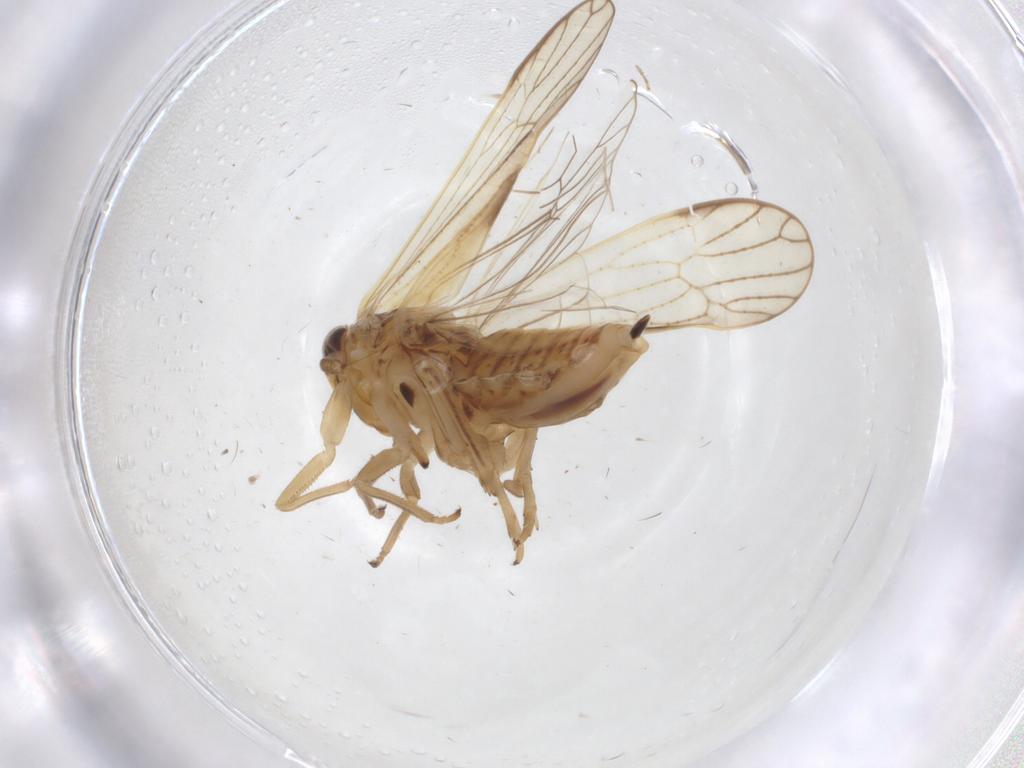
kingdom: Animalia
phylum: Arthropoda
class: Insecta
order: Hemiptera
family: Delphacidae
